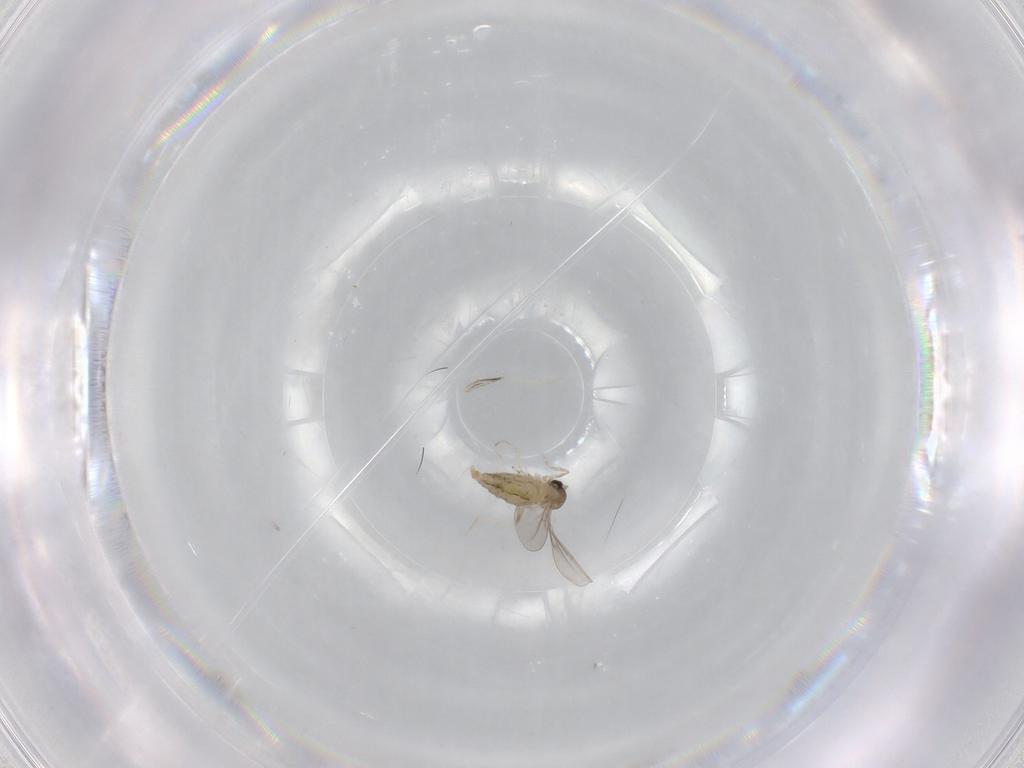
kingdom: Animalia
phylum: Arthropoda
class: Insecta
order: Diptera
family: Cecidomyiidae
